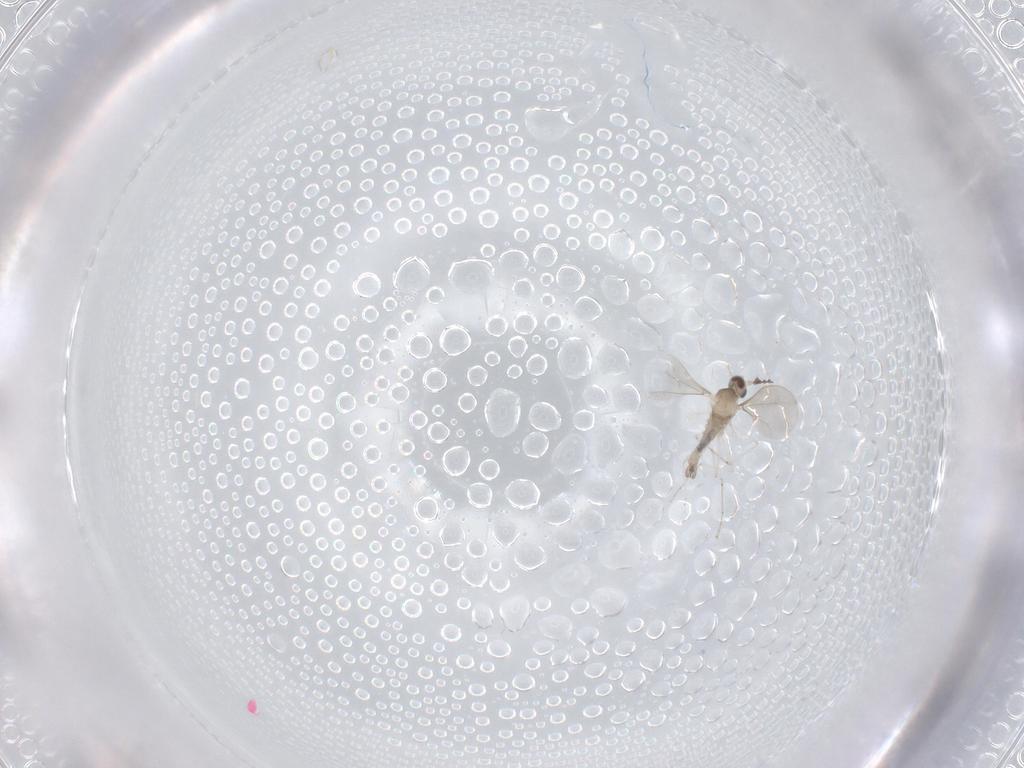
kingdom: Animalia
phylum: Arthropoda
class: Insecta
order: Diptera
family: Cecidomyiidae
